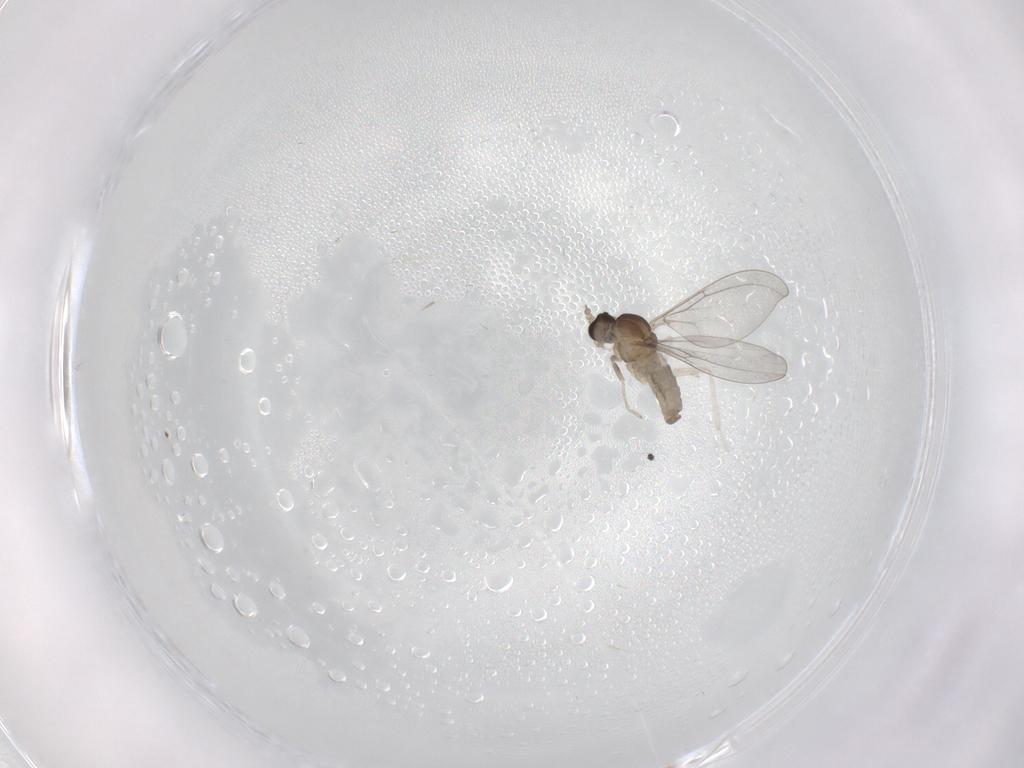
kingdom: Animalia
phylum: Arthropoda
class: Insecta
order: Diptera
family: Cecidomyiidae
